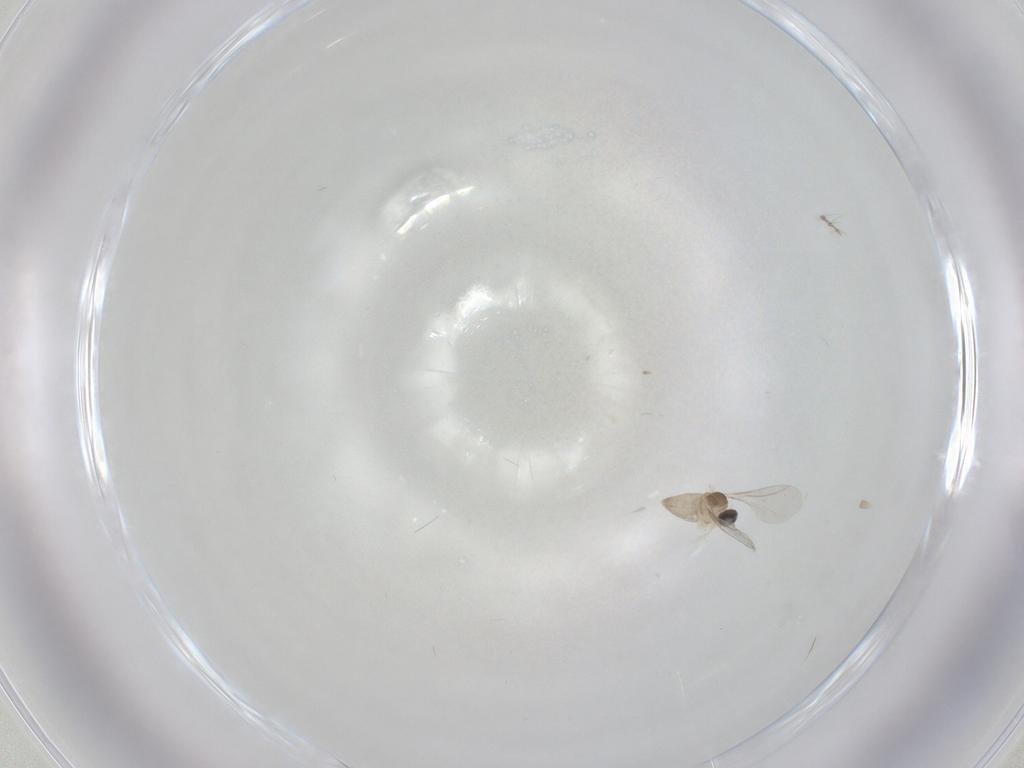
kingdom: Animalia
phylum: Arthropoda
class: Insecta
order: Diptera
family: Cecidomyiidae
